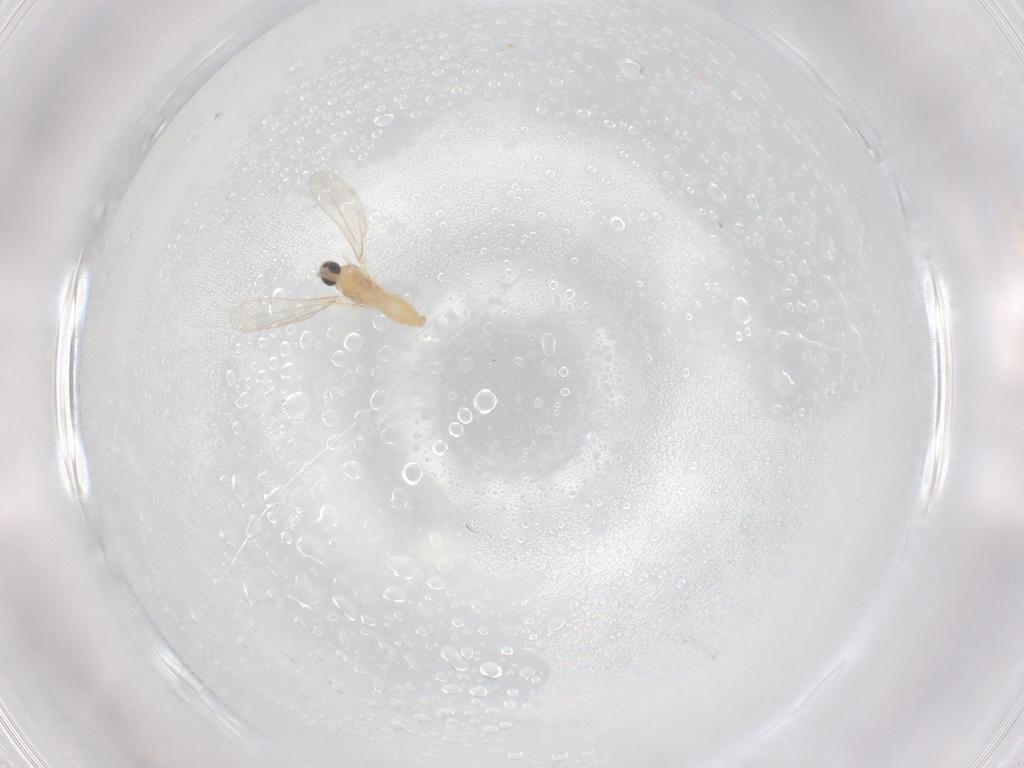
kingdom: Animalia
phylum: Arthropoda
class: Insecta
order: Diptera
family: Cecidomyiidae
